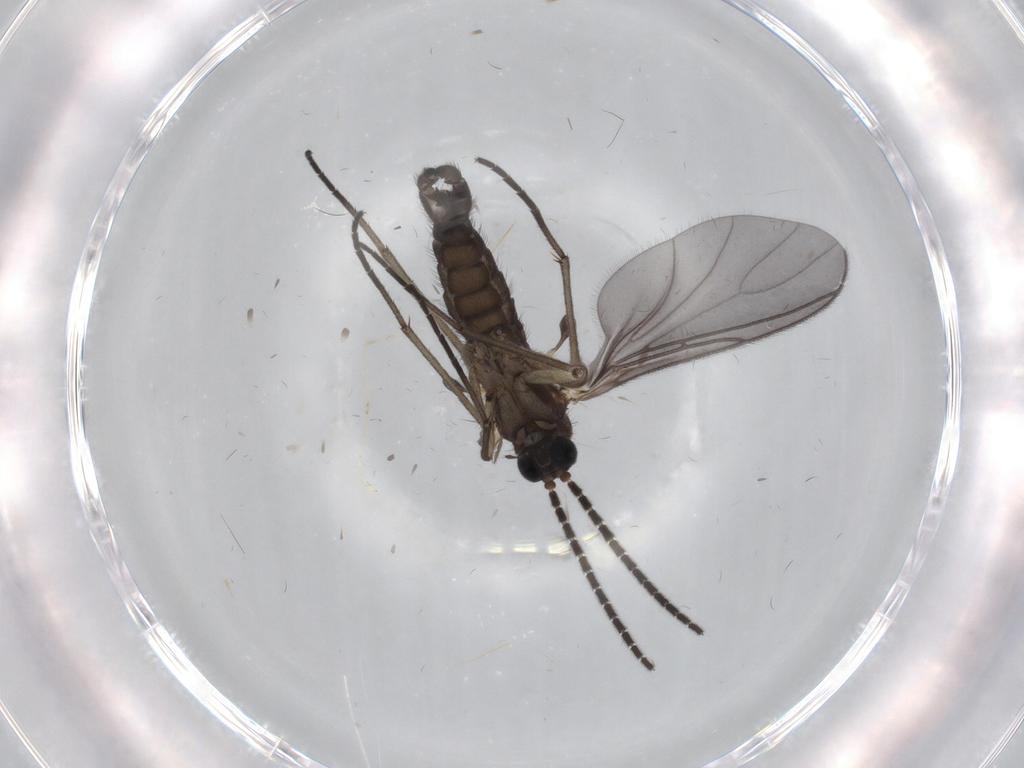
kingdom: Animalia
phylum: Arthropoda
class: Insecta
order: Diptera
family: Sciaridae
